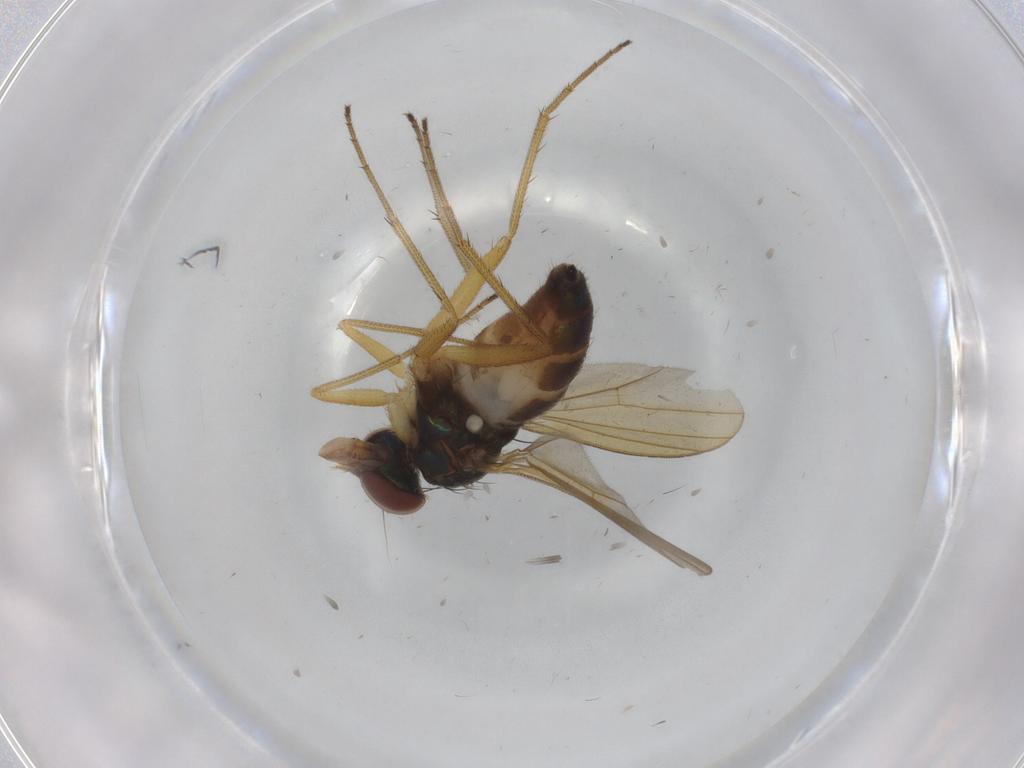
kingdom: Animalia
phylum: Arthropoda
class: Insecta
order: Diptera
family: Dolichopodidae
